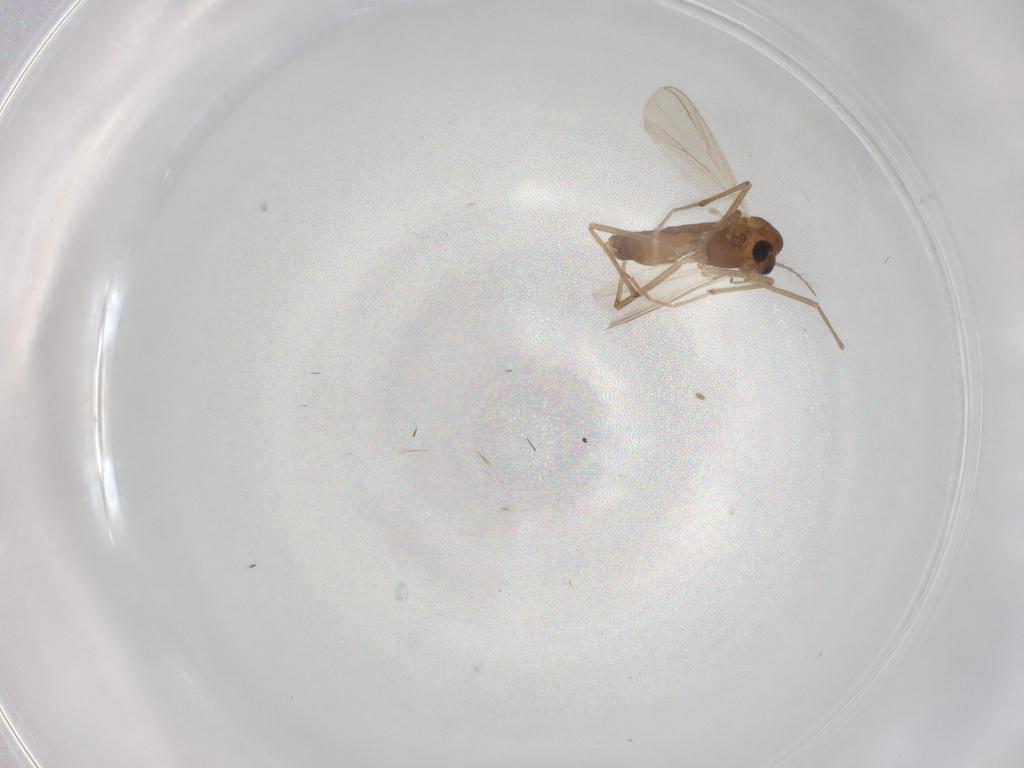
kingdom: Animalia
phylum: Arthropoda
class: Insecta
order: Diptera
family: Chironomidae
